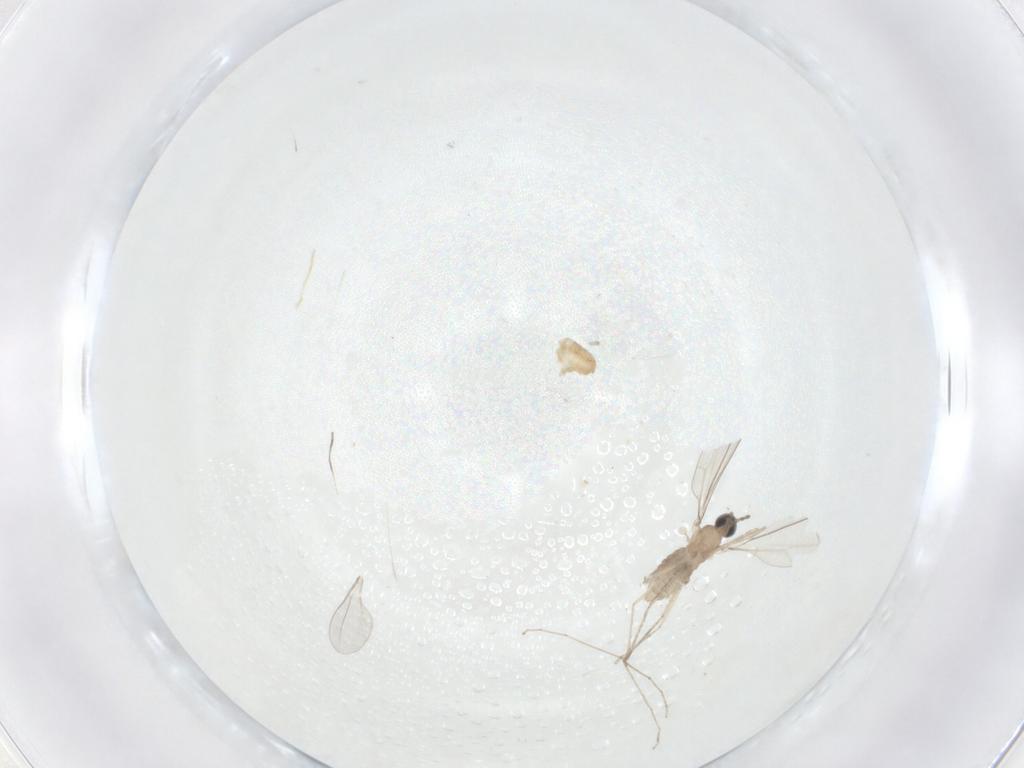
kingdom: Animalia
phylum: Arthropoda
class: Insecta
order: Diptera
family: Cecidomyiidae
